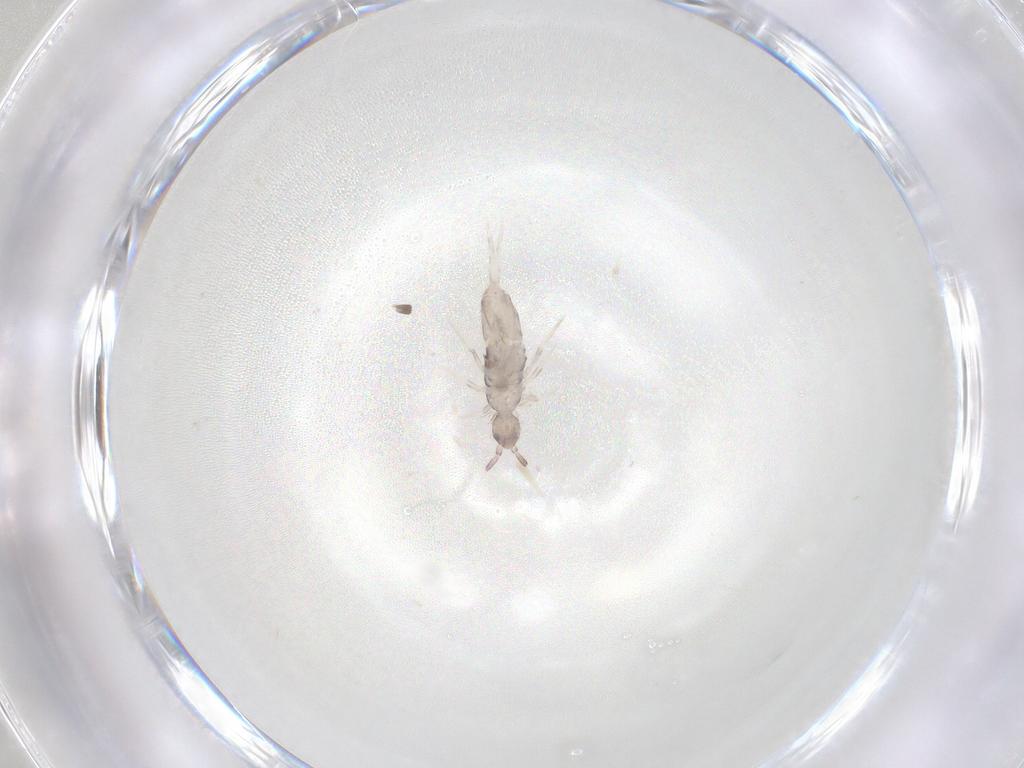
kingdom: Animalia
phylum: Arthropoda
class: Collembola
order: Poduromorpha
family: Hypogastruridae
